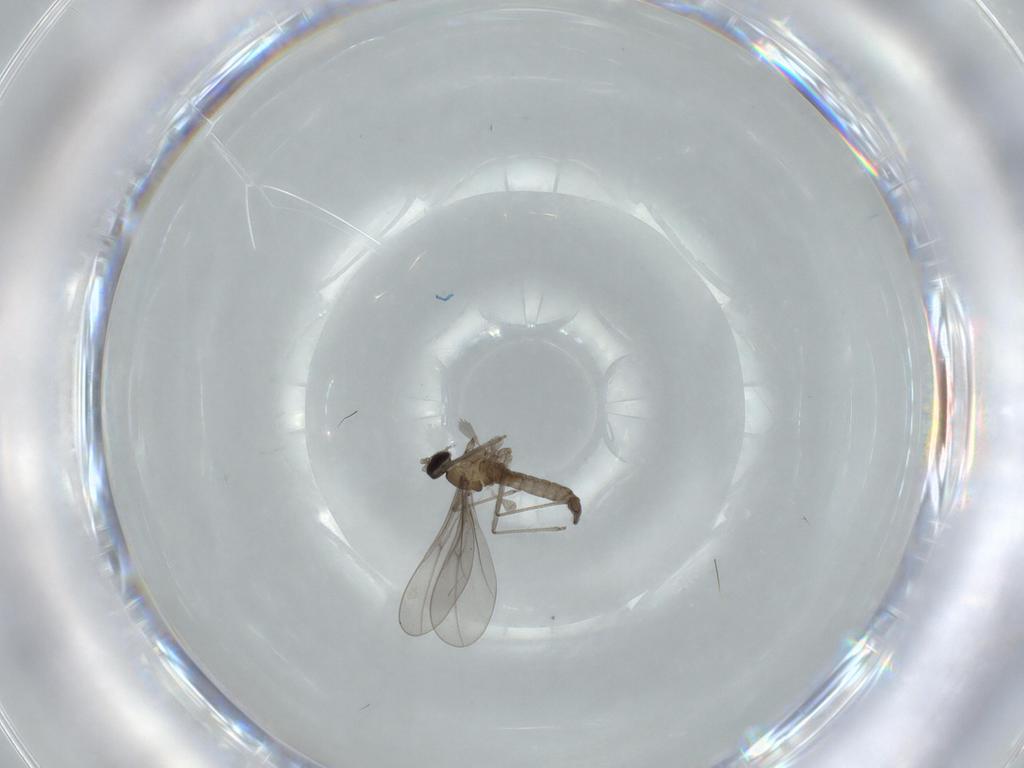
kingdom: Animalia
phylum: Arthropoda
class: Insecta
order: Diptera
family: Cecidomyiidae
